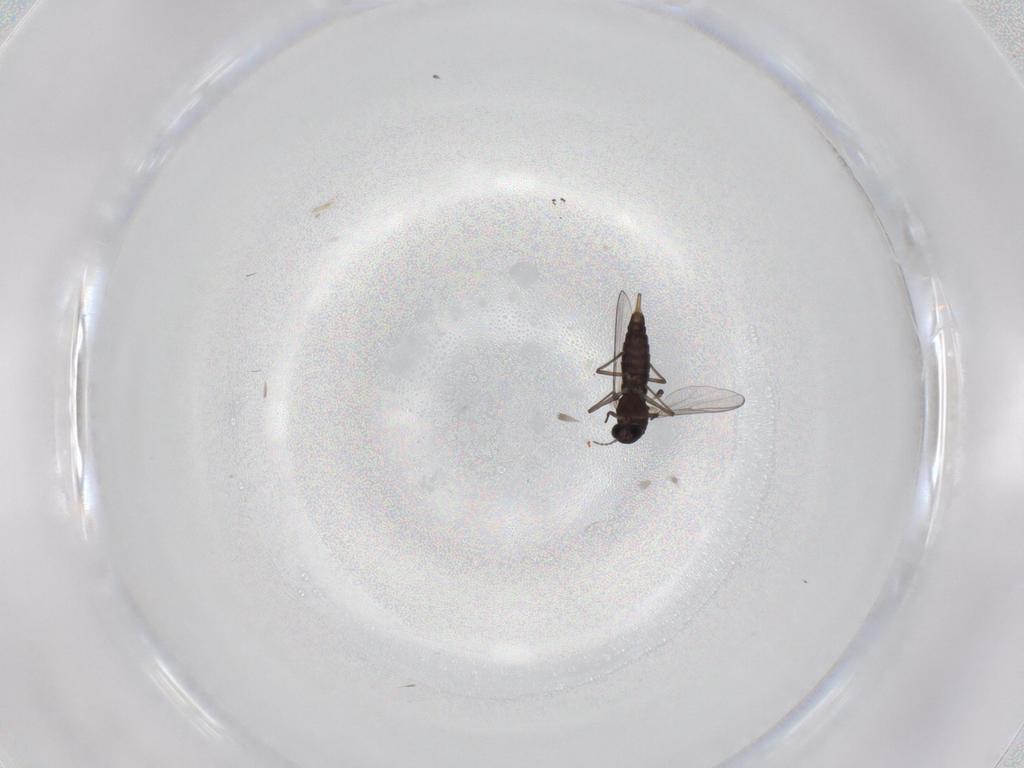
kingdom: Animalia
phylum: Arthropoda
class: Insecta
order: Diptera
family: Chironomidae
